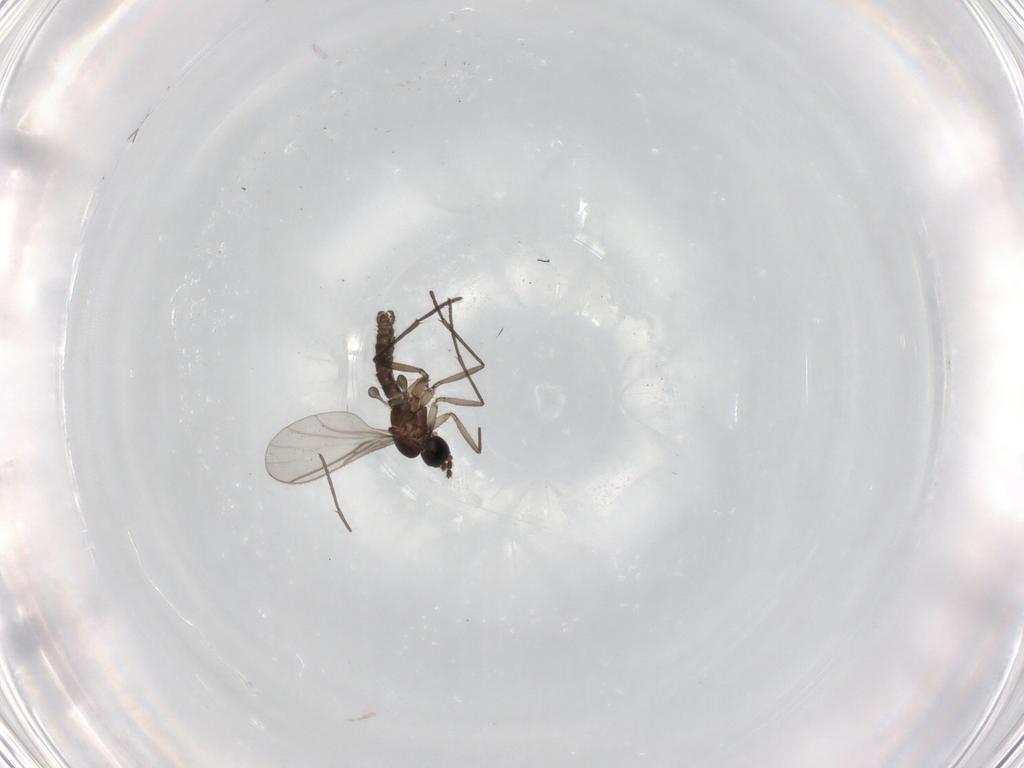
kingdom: Animalia
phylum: Arthropoda
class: Insecta
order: Diptera
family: Sciaridae
